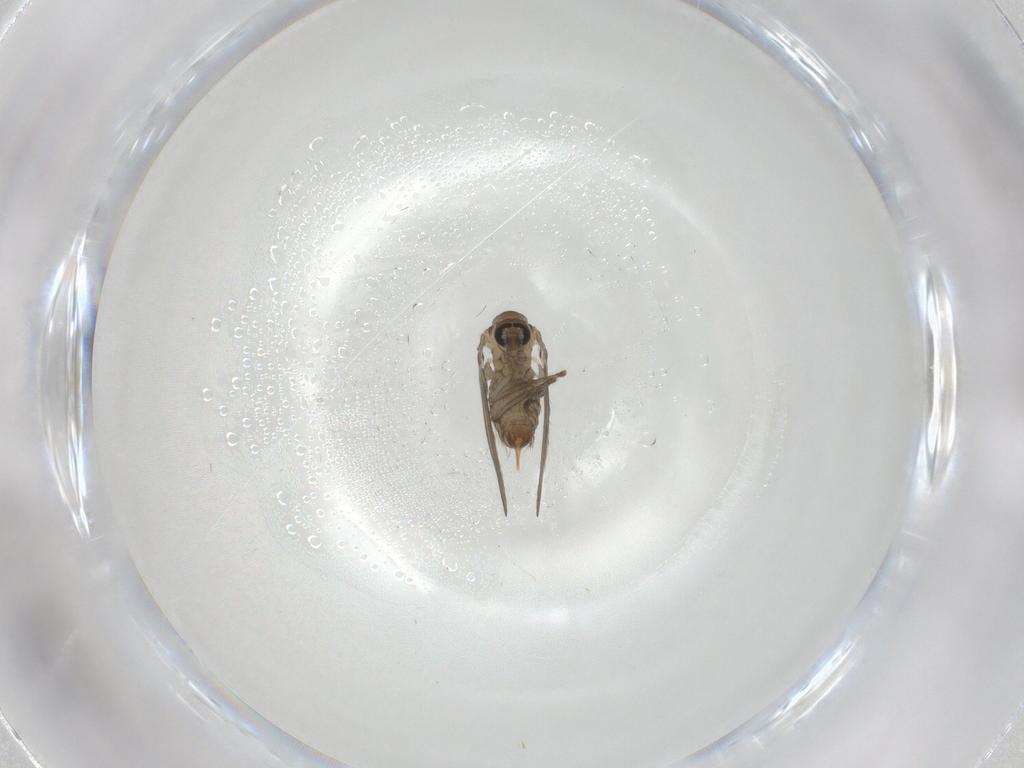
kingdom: Animalia
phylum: Arthropoda
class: Insecta
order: Diptera
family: Psychodidae
